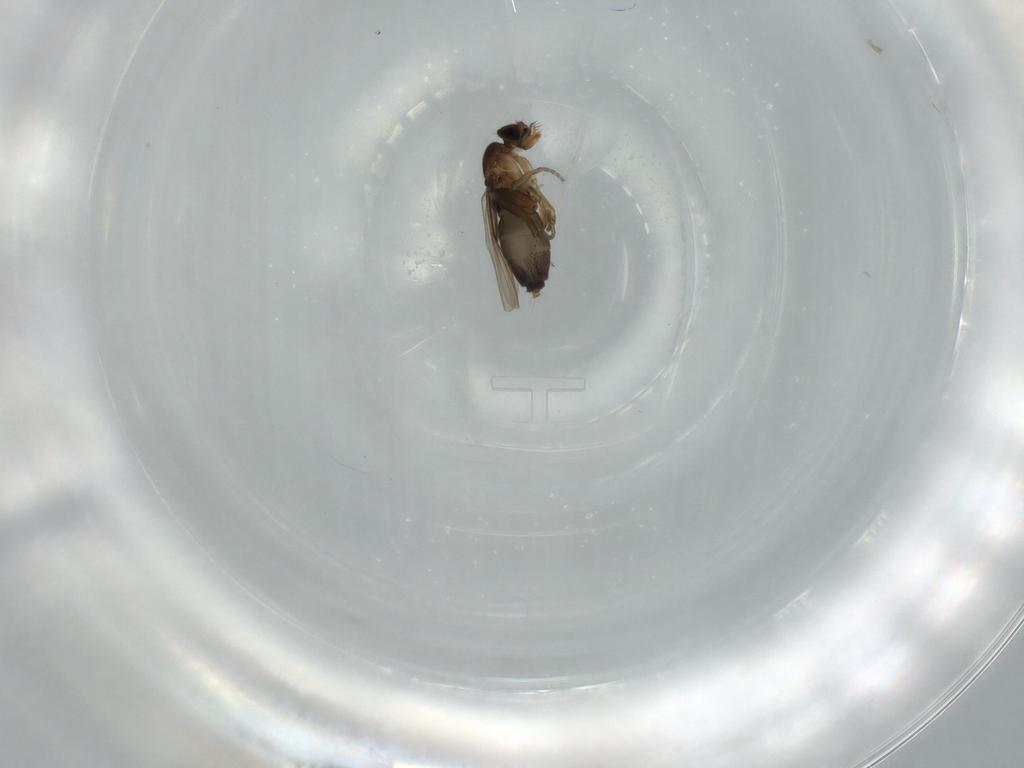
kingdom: Animalia
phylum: Arthropoda
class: Insecta
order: Diptera
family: Phoridae
